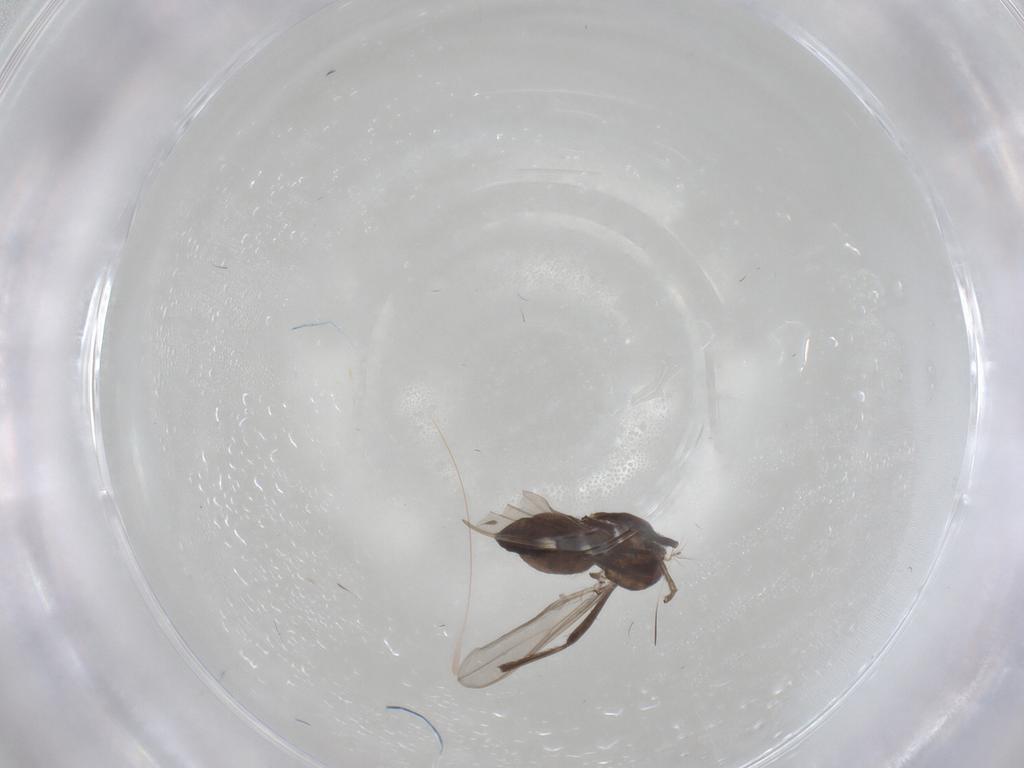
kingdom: Animalia
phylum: Arthropoda
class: Insecta
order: Diptera
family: Chironomidae
